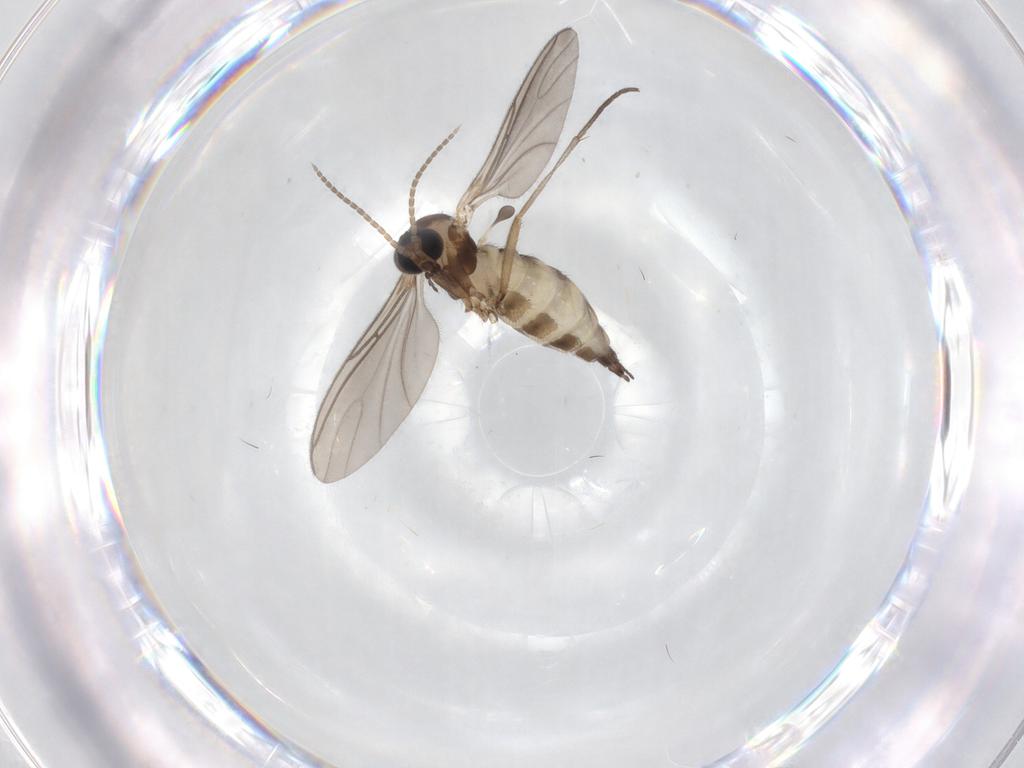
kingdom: Animalia
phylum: Arthropoda
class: Insecta
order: Diptera
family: Sciaridae
